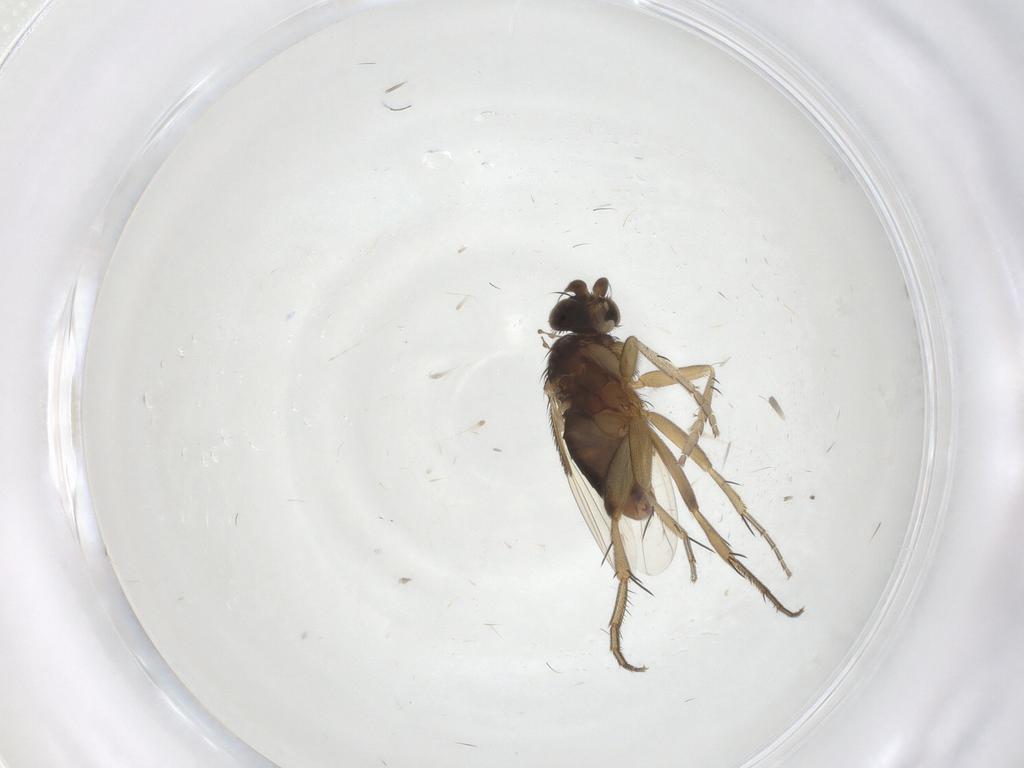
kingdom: Animalia
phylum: Arthropoda
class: Insecta
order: Diptera
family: Phoridae
